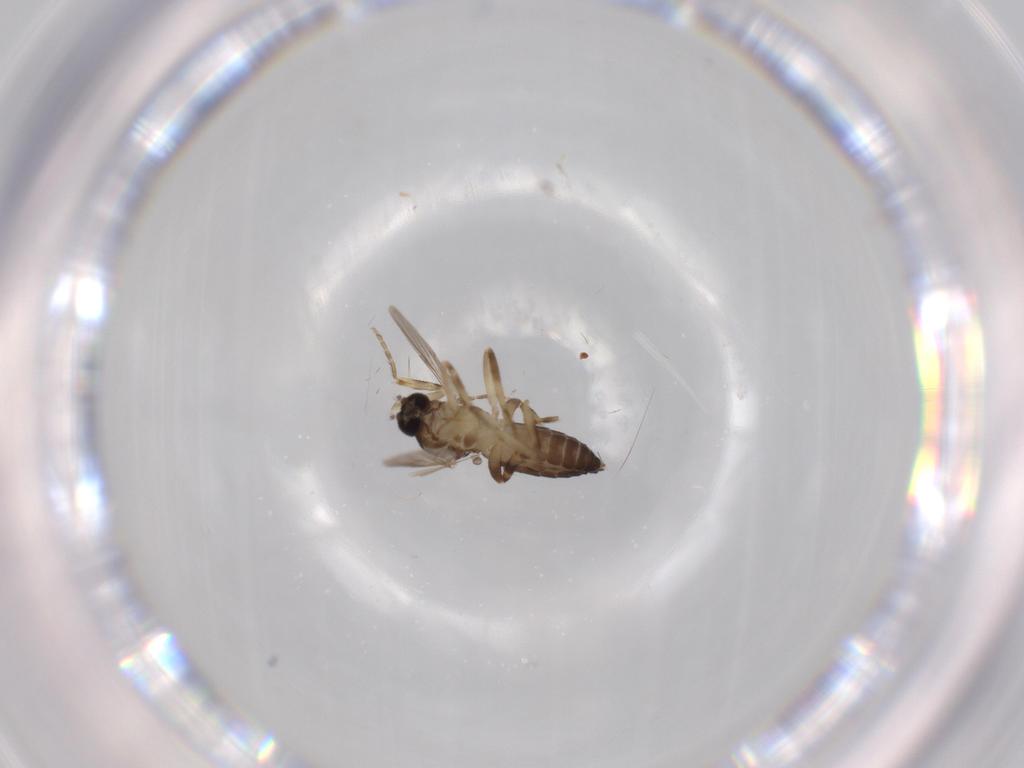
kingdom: Animalia
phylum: Arthropoda
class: Insecta
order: Diptera
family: Ceratopogonidae
